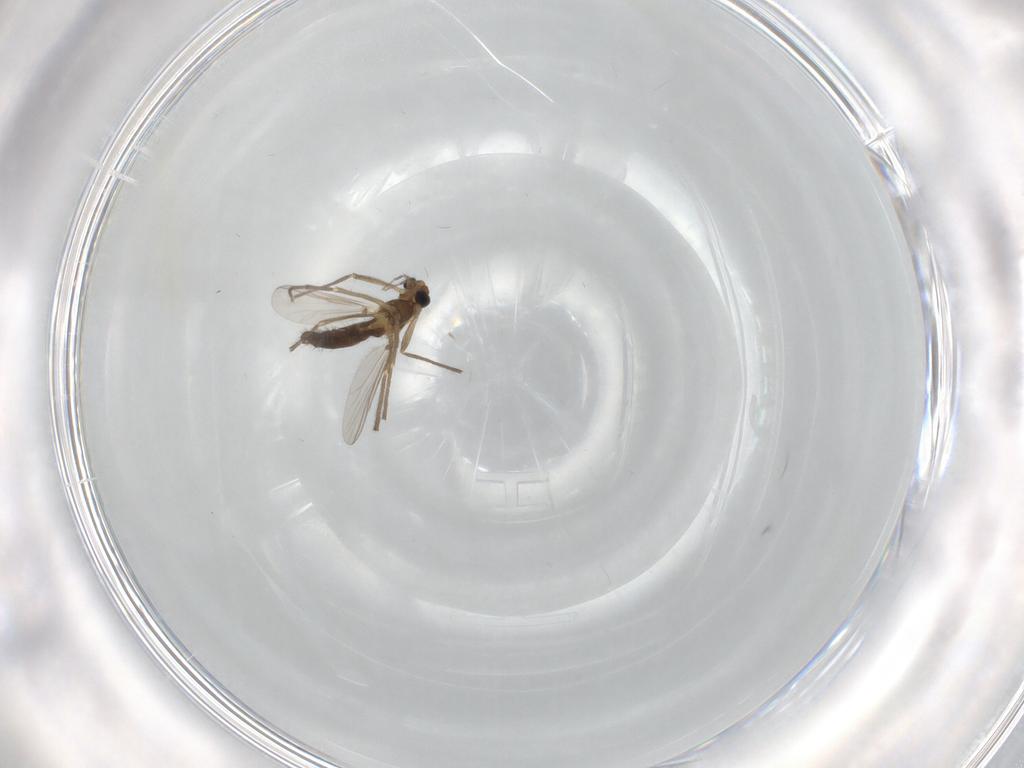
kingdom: Animalia
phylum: Arthropoda
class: Insecta
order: Diptera
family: Chironomidae
